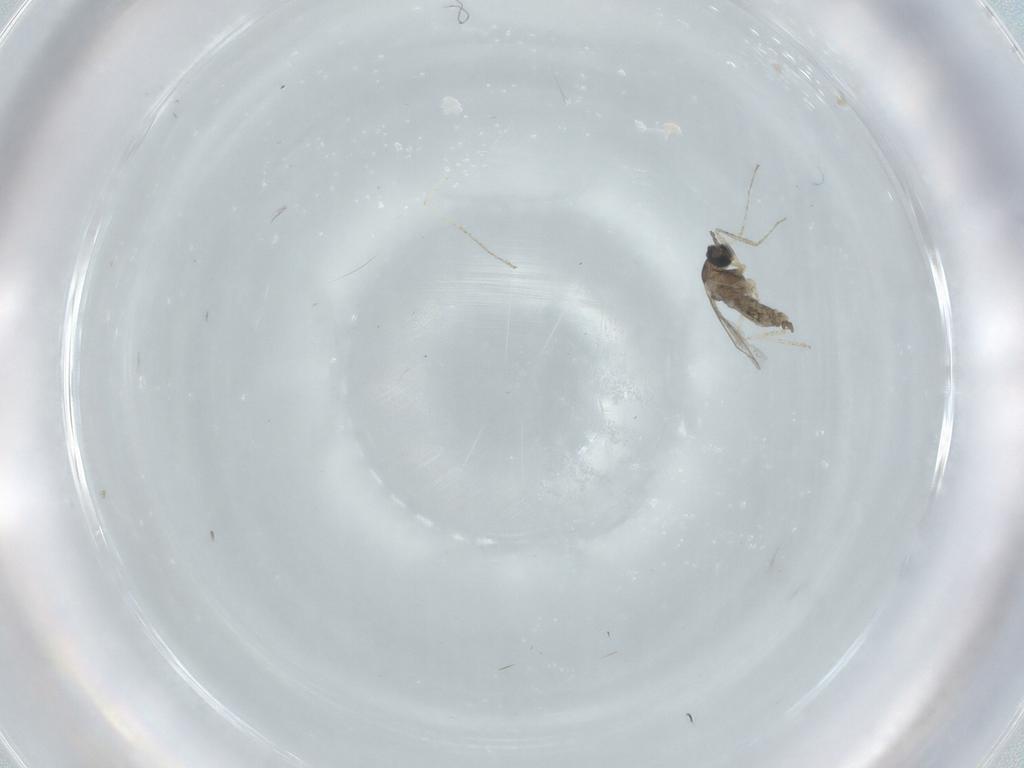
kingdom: Animalia
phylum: Arthropoda
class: Insecta
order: Diptera
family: Cecidomyiidae
